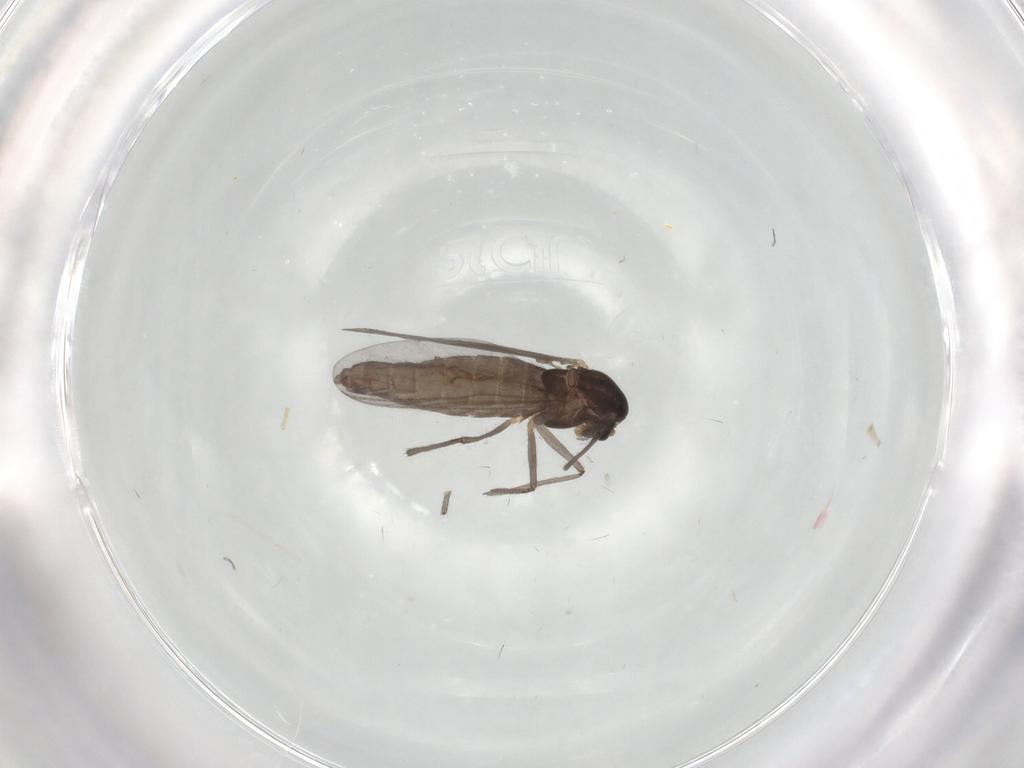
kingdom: Animalia
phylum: Arthropoda
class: Insecta
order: Diptera
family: Chironomidae
